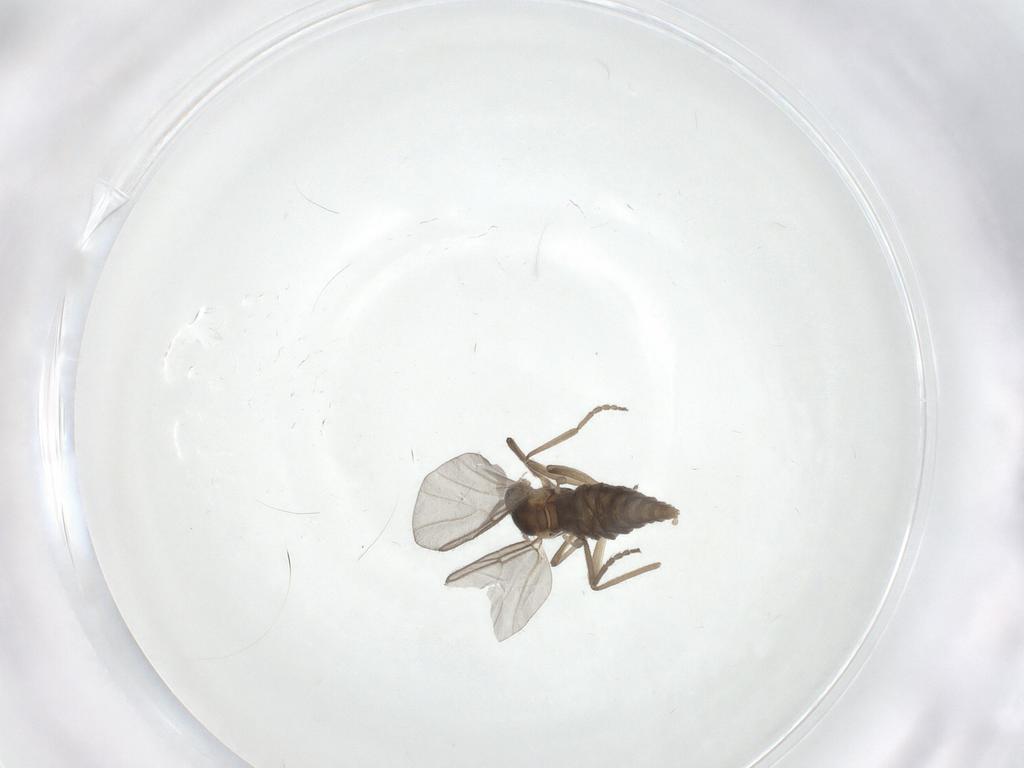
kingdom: Animalia
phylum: Arthropoda
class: Insecta
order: Diptera
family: Cecidomyiidae
